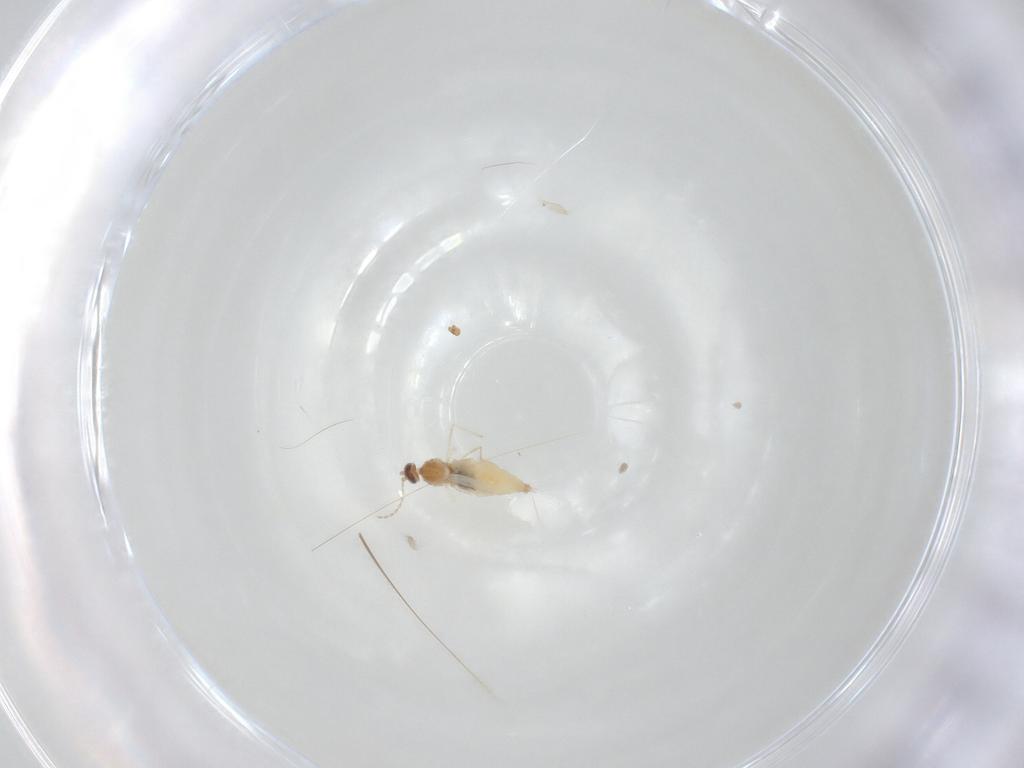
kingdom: Animalia
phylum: Arthropoda
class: Insecta
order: Diptera
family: Cecidomyiidae
